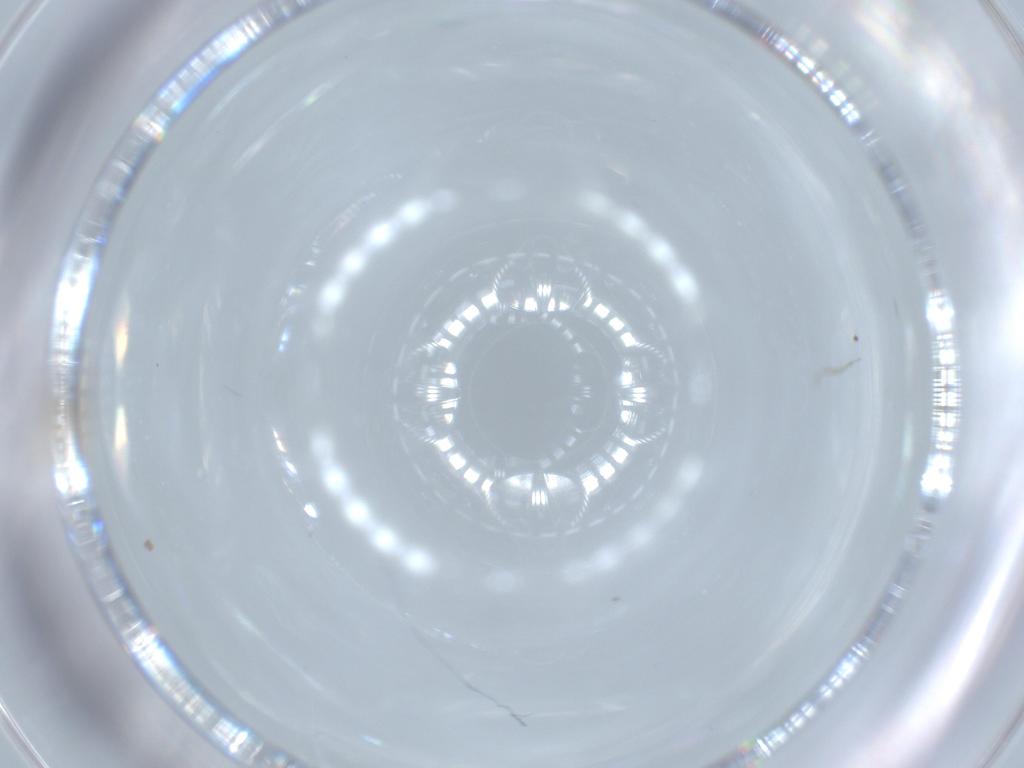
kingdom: Animalia
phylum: Arthropoda
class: Insecta
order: Diptera
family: Cecidomyiidae
